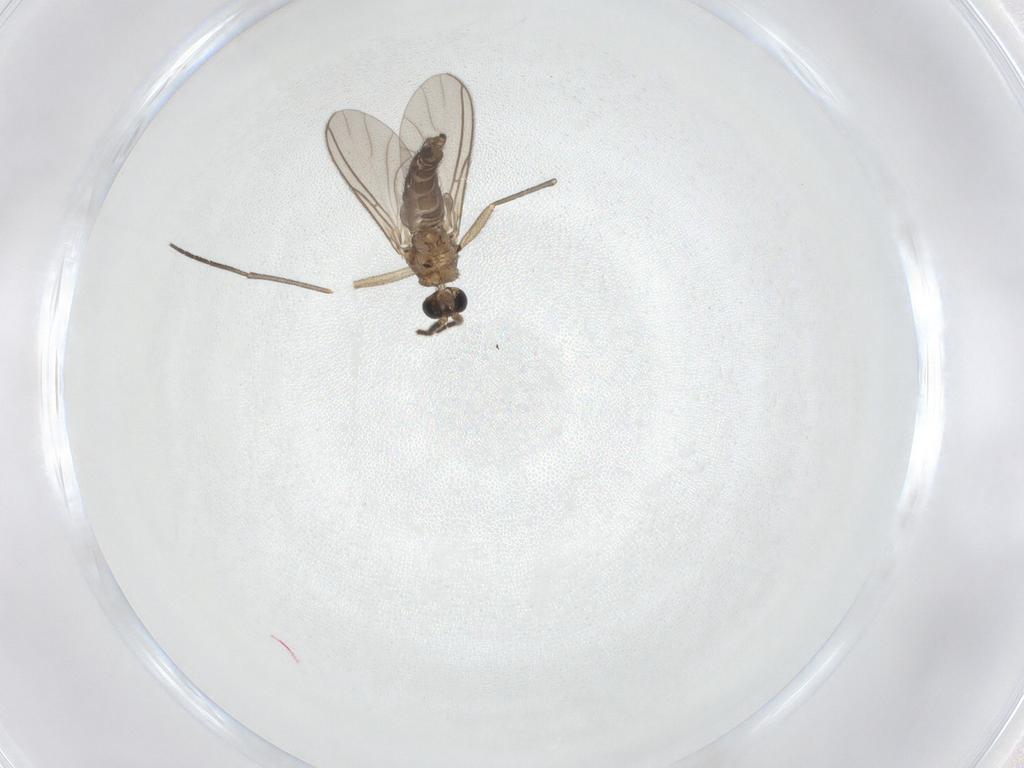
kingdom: Animalia
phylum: Arthropoda
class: Insecta
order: Diptera
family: Sciaridae
